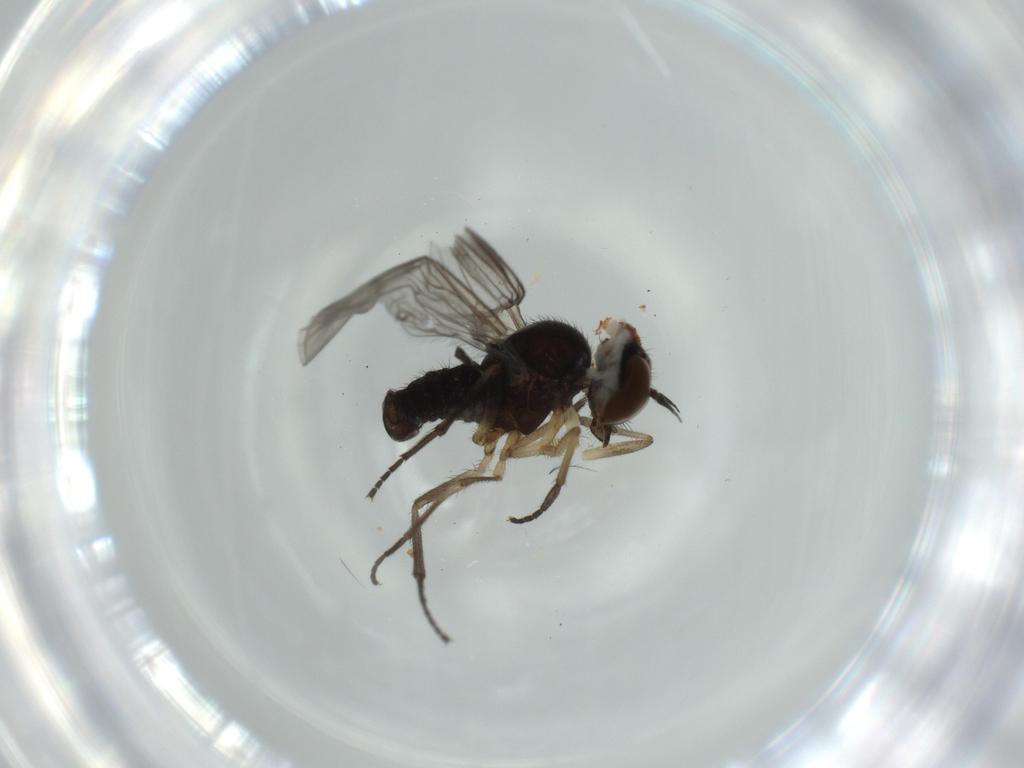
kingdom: Animalia
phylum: Arthropoda
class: Insecta
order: Diptera
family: Empididae
